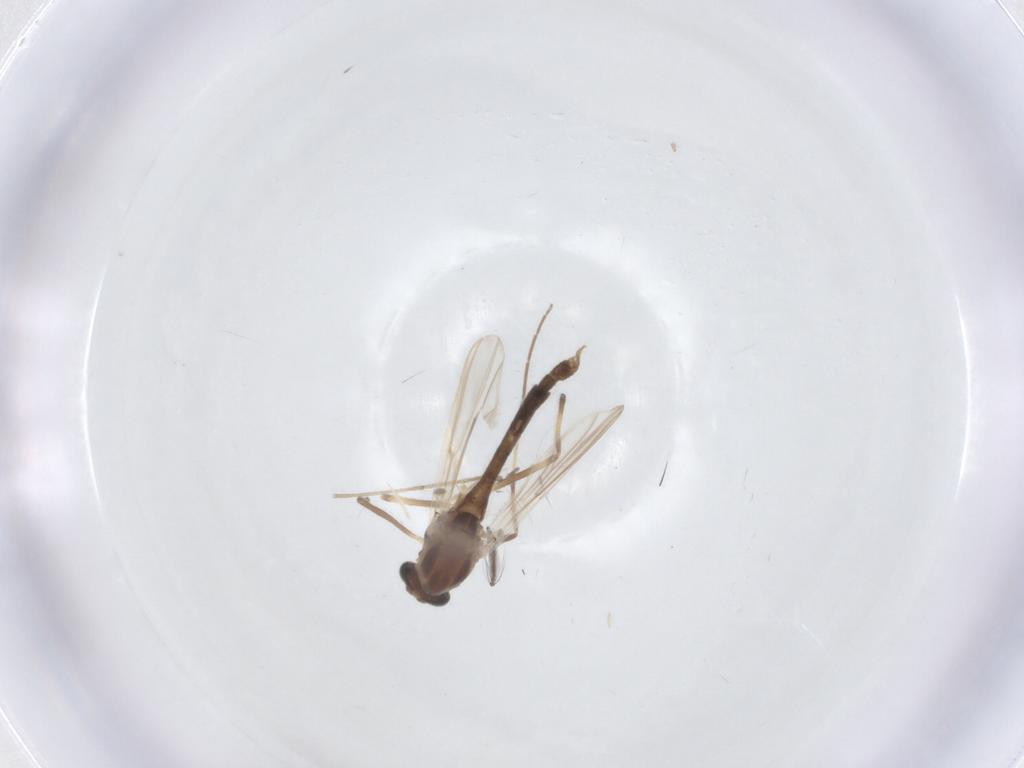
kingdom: Animalia
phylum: Arthropoda
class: Insecta
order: Diptera
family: Chironomidae
